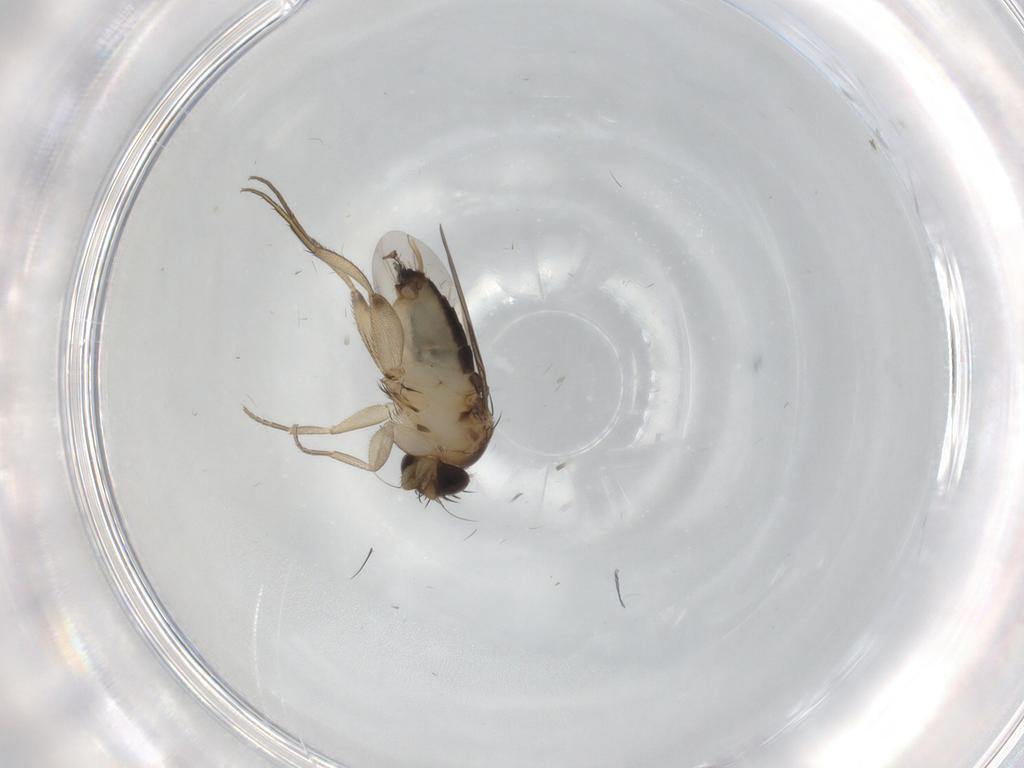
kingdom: Animalia
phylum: Arthropoda
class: Insecta
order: Diptera
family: Phoridae
